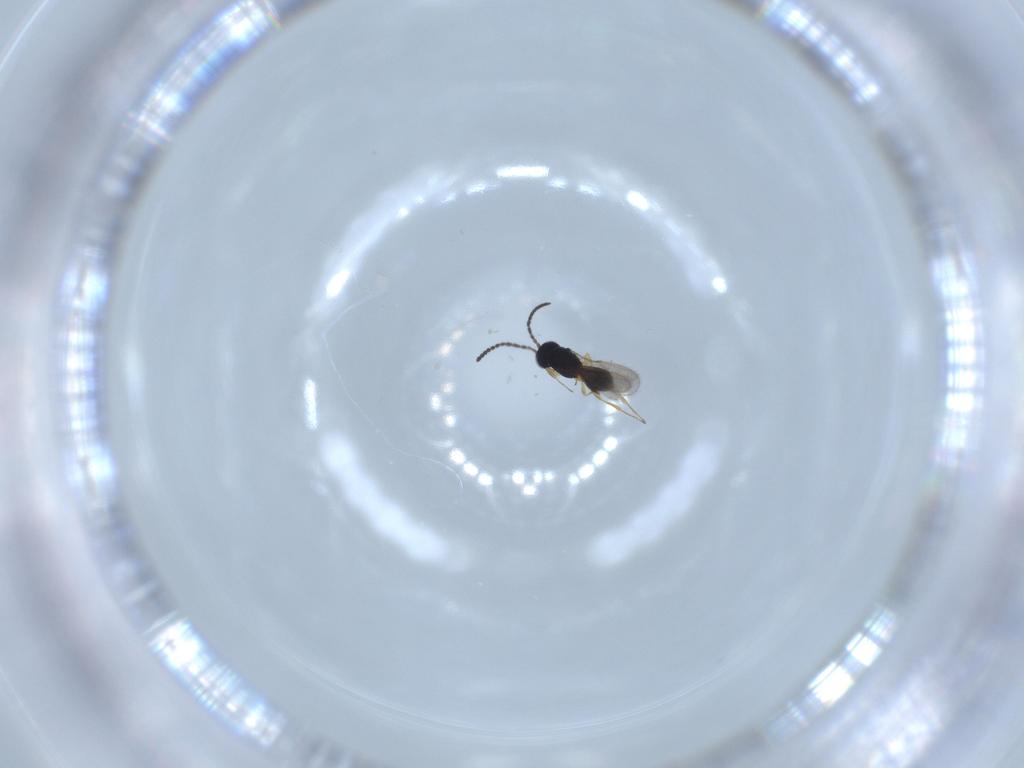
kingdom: Animalia
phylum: Arthropoda
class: Insecta
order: Hymenoptera
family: Scelionidae
